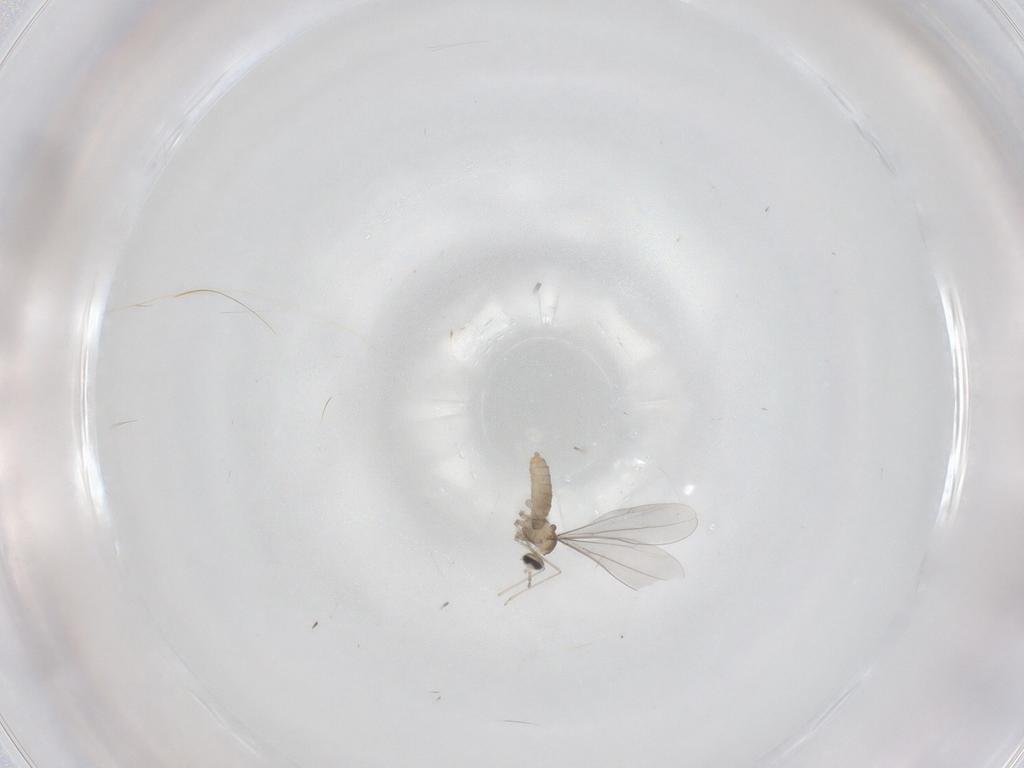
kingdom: Animalia
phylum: Arthropoda
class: Insecta
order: Diptera
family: Cecidomyiidae
